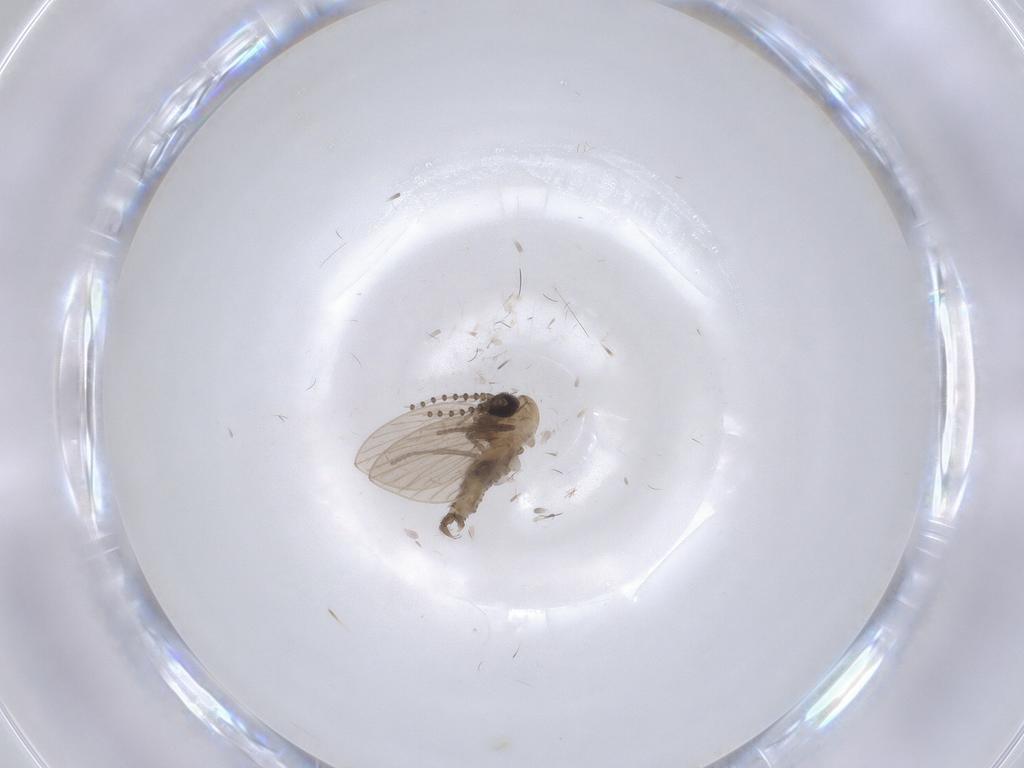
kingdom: Animalia
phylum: Arthropoda
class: Insecta
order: Diptera
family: Psychodidae
